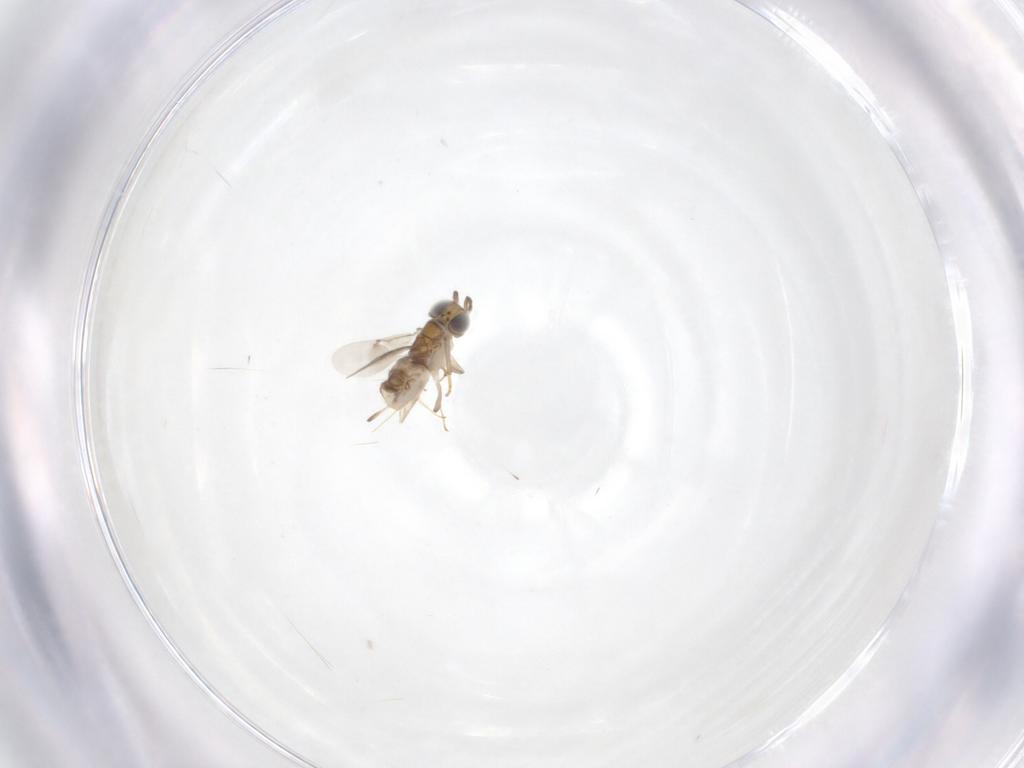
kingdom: Animalia
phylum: Arthropoda
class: Insecta
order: Hymenoptera
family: Encyrtidae
